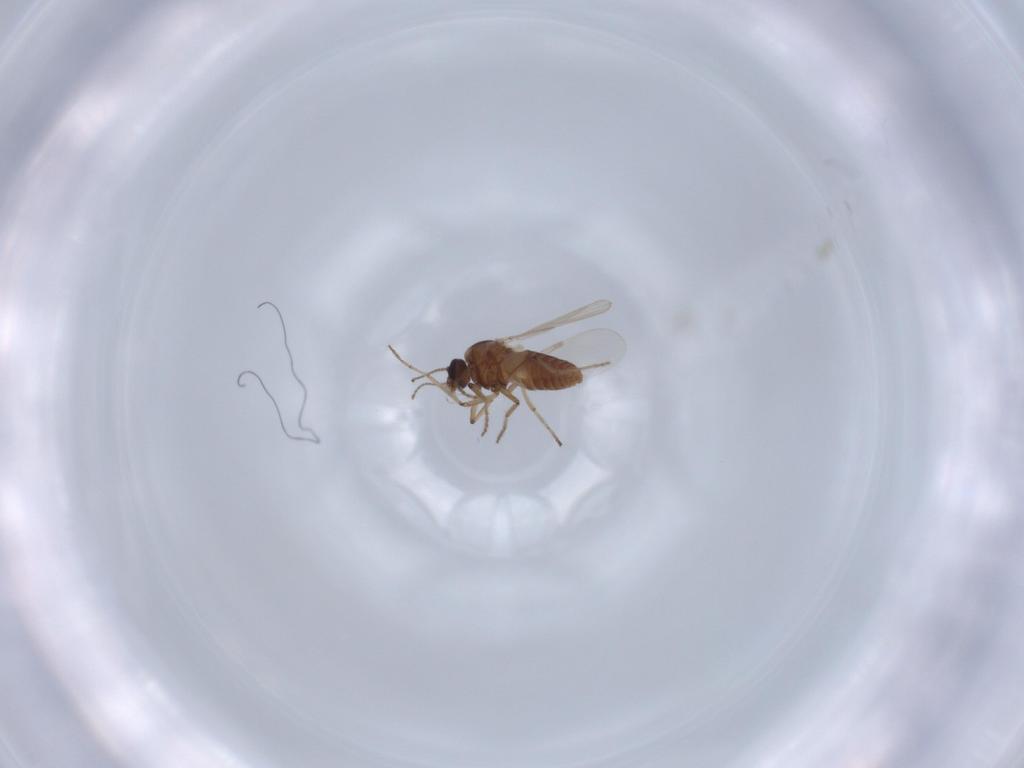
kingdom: Animalia
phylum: Arthropoda
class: Insecta
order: Diptera
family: Ceratopogonidae
